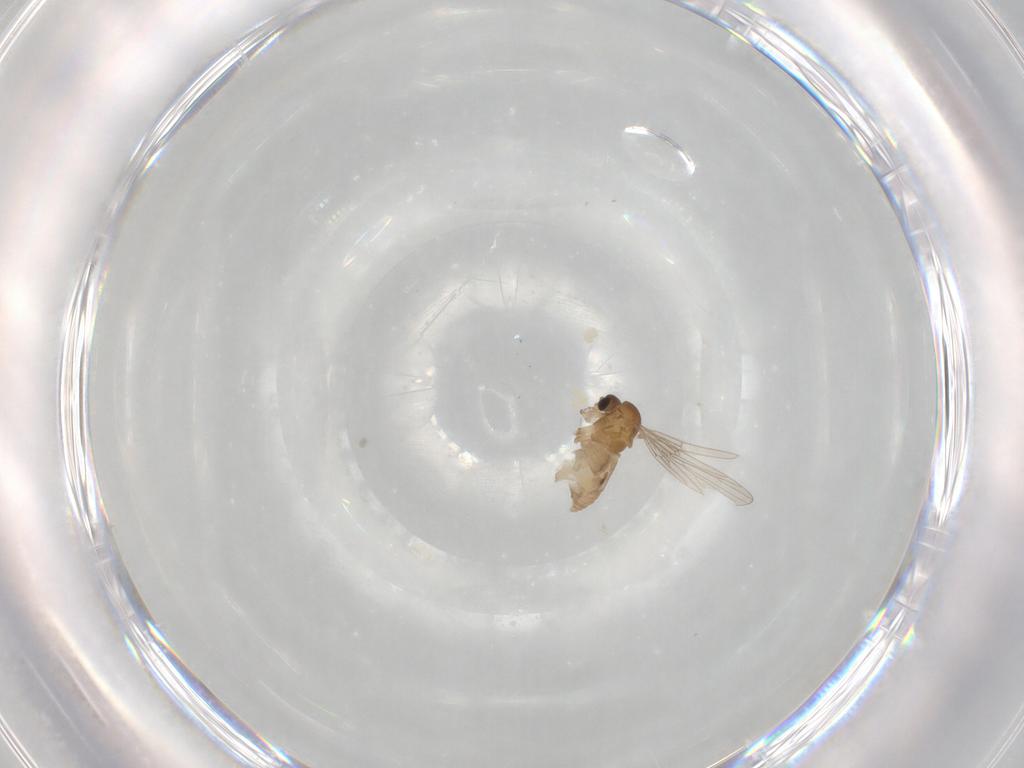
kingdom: Animalia
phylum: Arthropoda
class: Insecta
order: Diptera
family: Psychodidae
